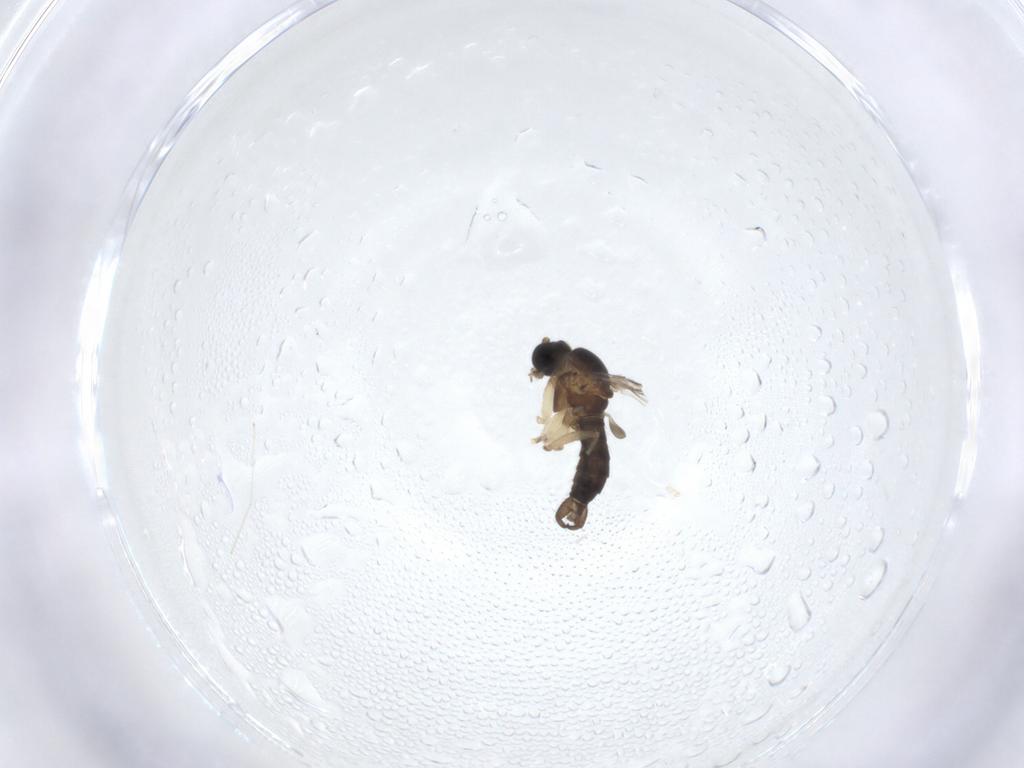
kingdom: Animalia
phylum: Arthropoda
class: Insecta
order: Diptera
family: Sciaridae
